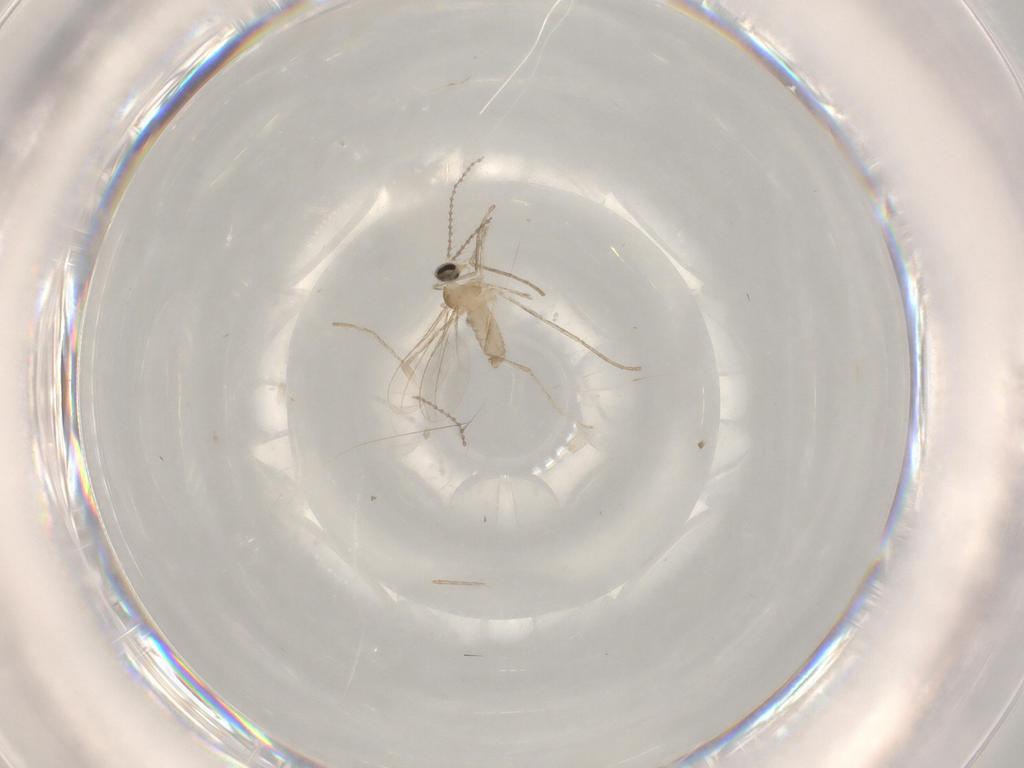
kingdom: Animalia
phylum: Arthropoda
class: Insecta
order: Diptera
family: Cecidomyiidae
